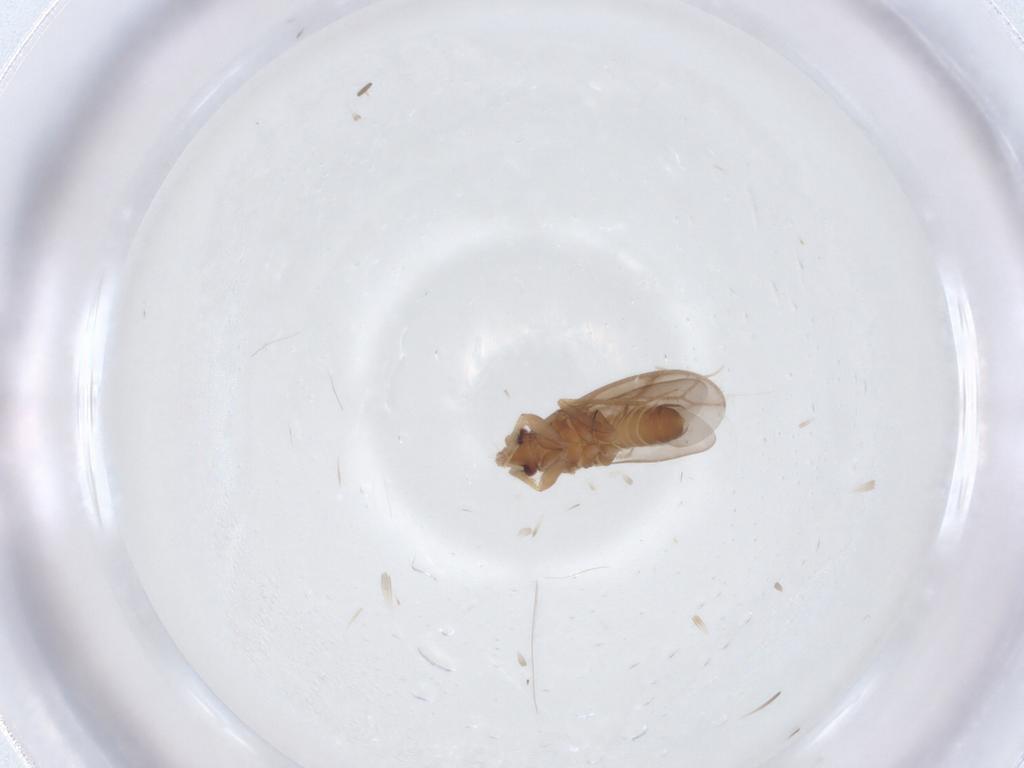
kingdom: Animalia
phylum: Arthropoda
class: Insecta
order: Hemiptera
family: Ceratocombidae
